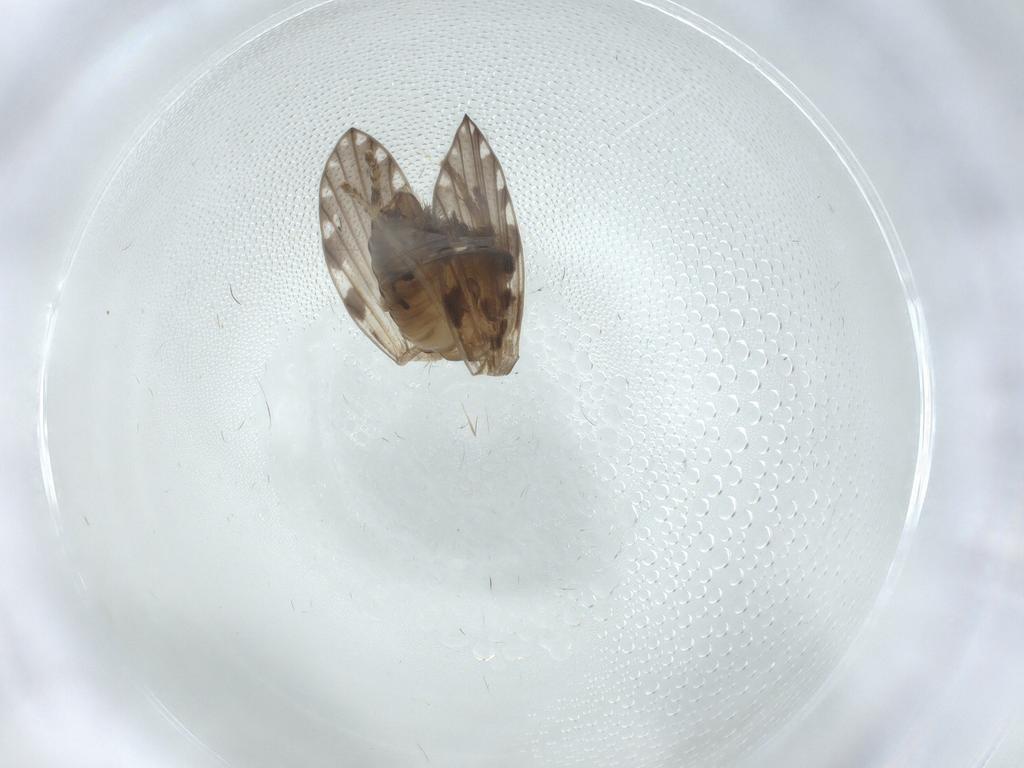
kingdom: Animalia
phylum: Arthropoda
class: Insecta
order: Diptera
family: Psychodidae
